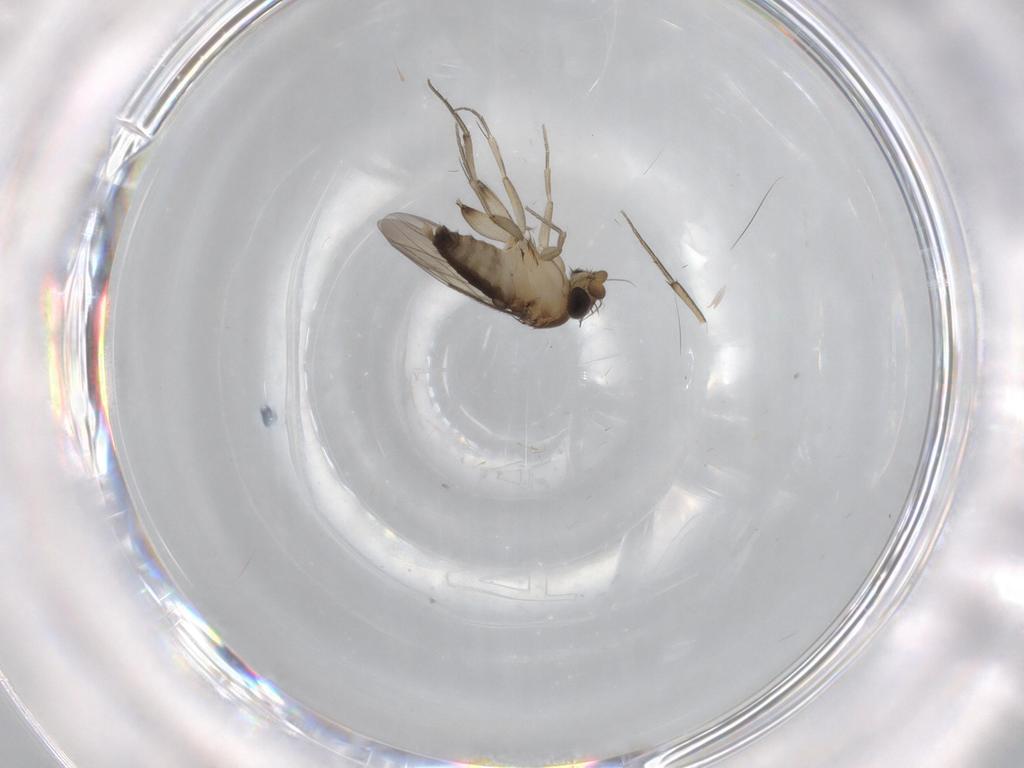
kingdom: Animalia
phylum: Arthropoda
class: Insecta
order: Diptera
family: Phoridae
